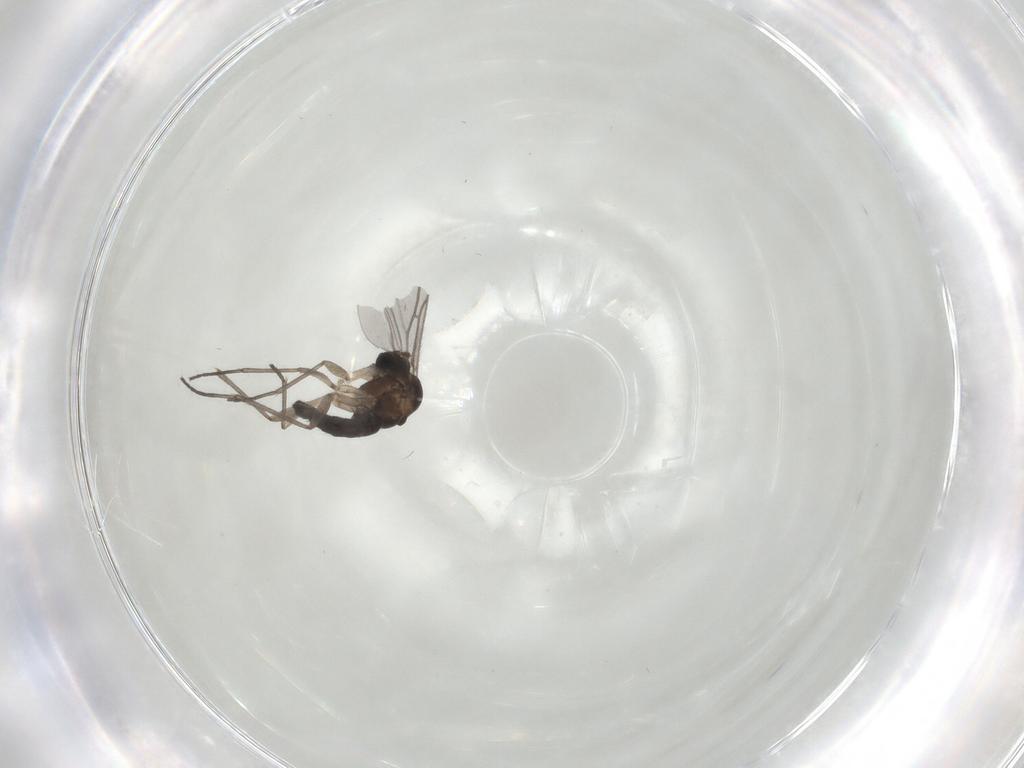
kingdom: Animalia
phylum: Arthropoda
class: Insecta
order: Diptera
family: Sciaridae
